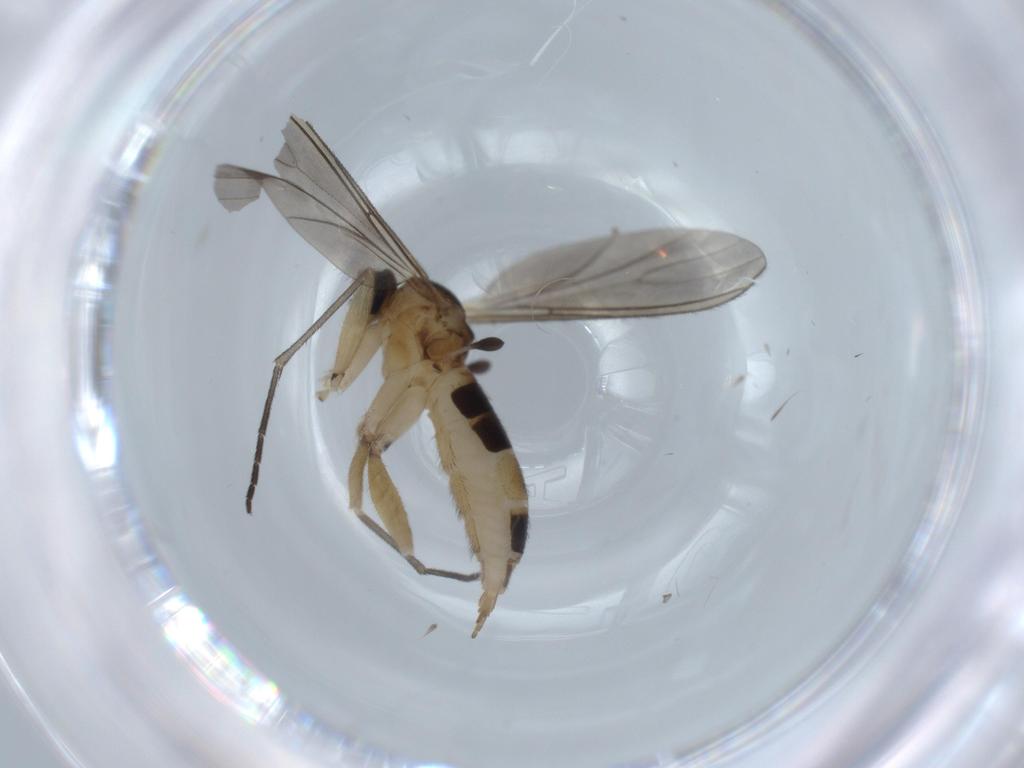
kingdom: Animalia
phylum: Arthropoda
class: Insecta
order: Diptera
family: Sciaridae
